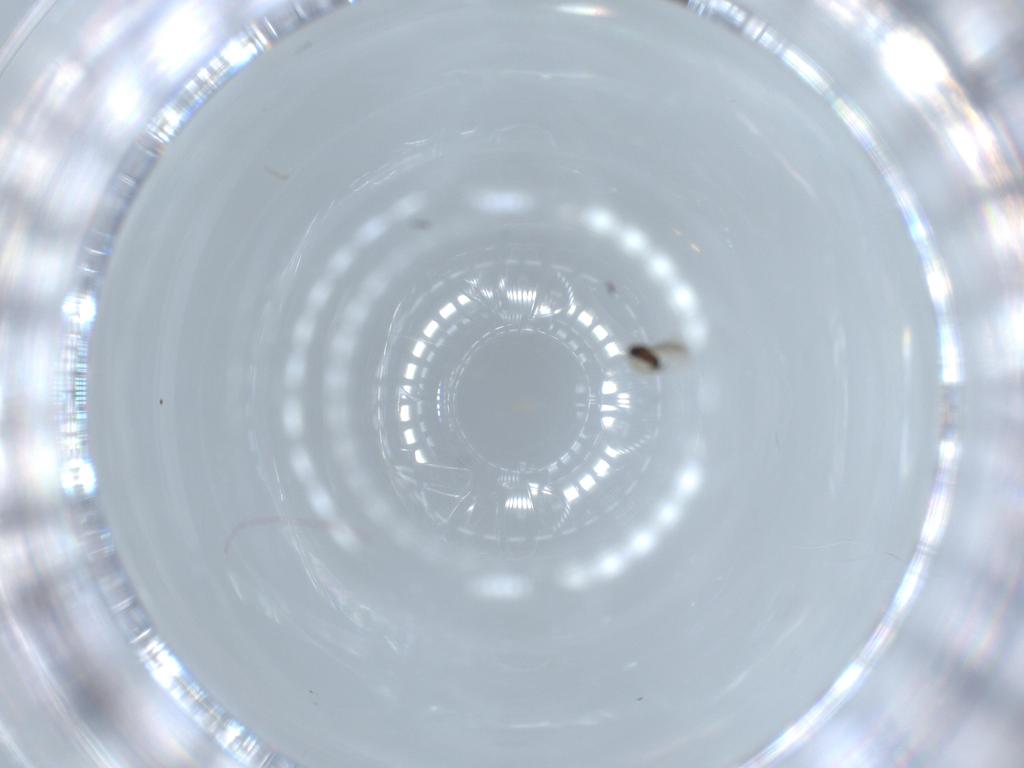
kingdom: Animalia
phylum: Arthropoda
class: Insecta
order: Hymenoptera
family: Mymaridae
